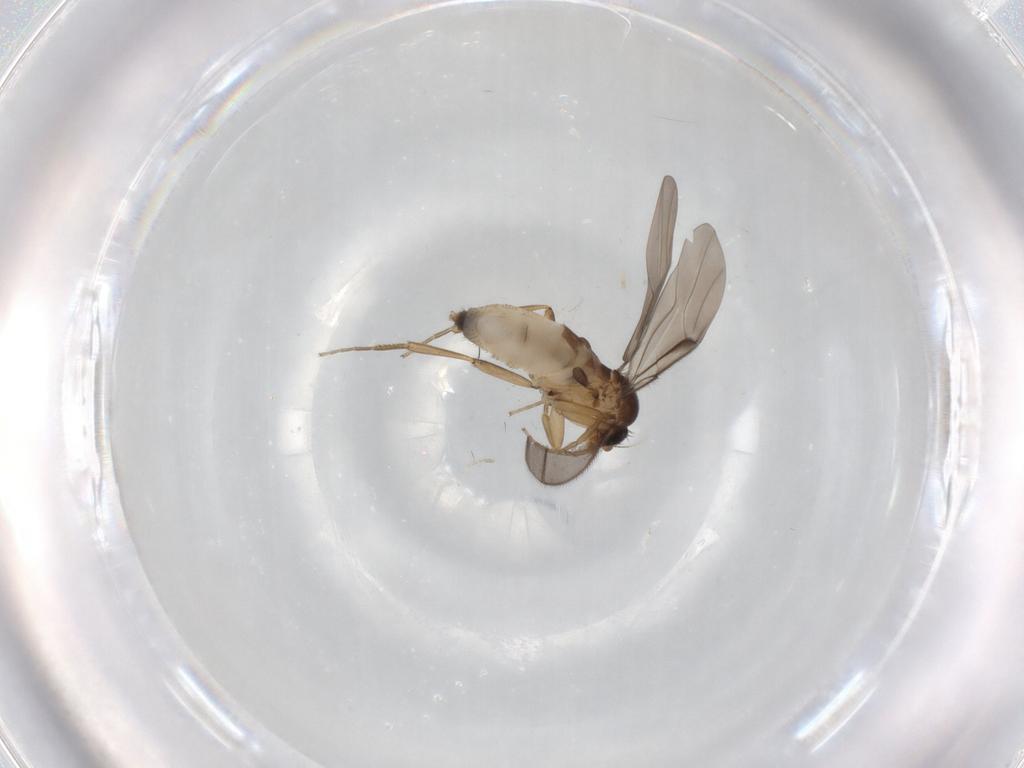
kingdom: Animalia
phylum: Arthropoda
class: Insecta
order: Diptera
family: Phoridae
